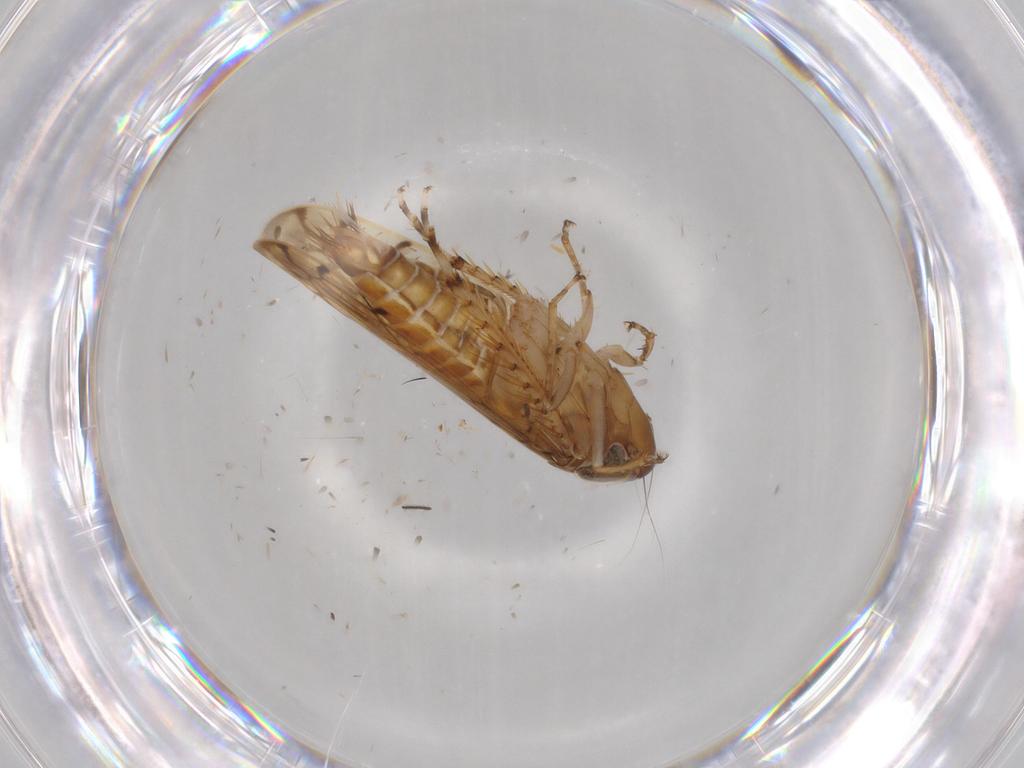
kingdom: Animalia
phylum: Arthropoda
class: Insecta
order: Hemiptera
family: Cicadellidae
